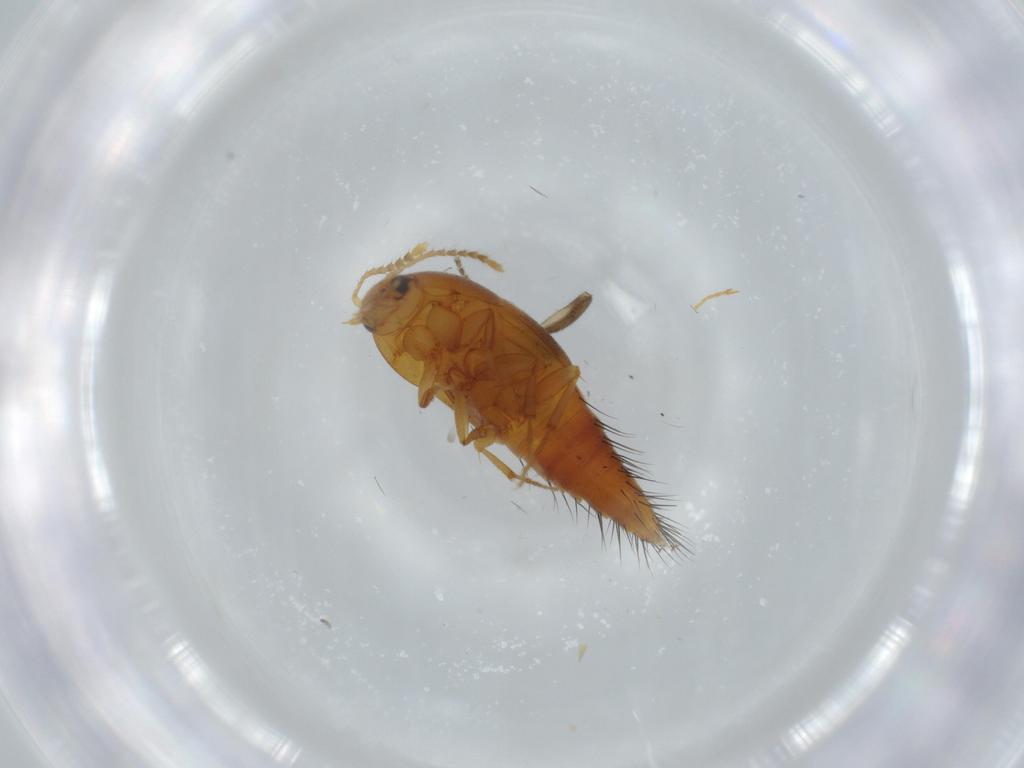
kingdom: Animalia
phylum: Arthropoda
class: Insecta
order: Coleoptera
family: Staphylinidae
